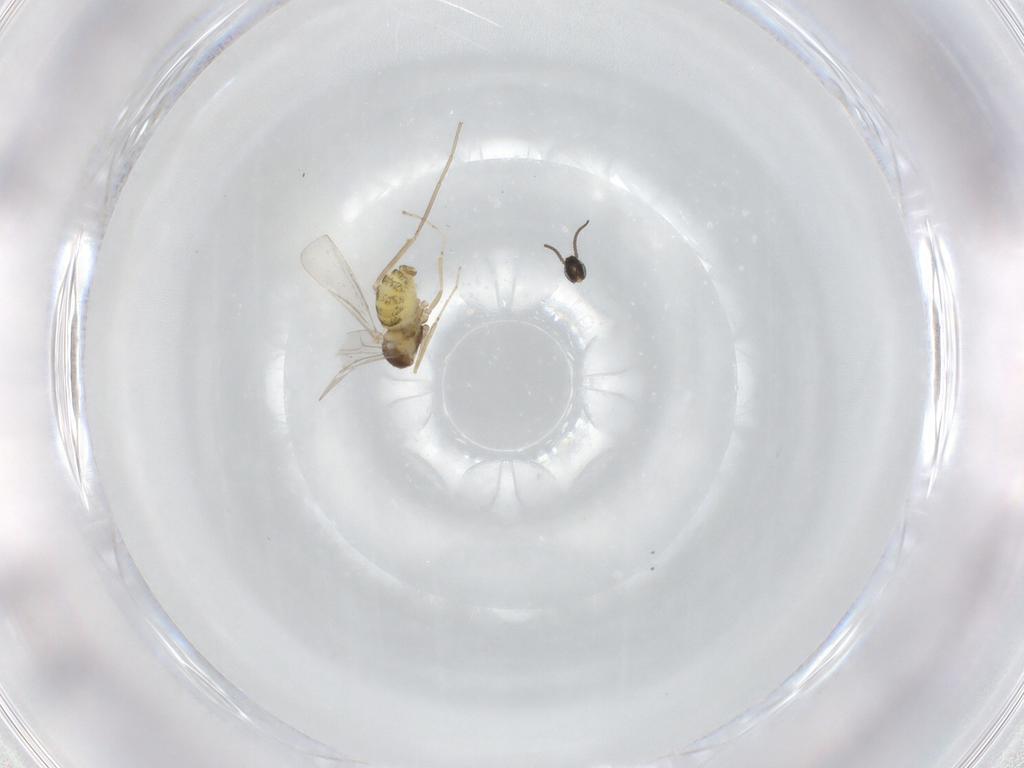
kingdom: Animalia
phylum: Arthropoda
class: Insecta
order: Diptera
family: Cecidomyiidae
